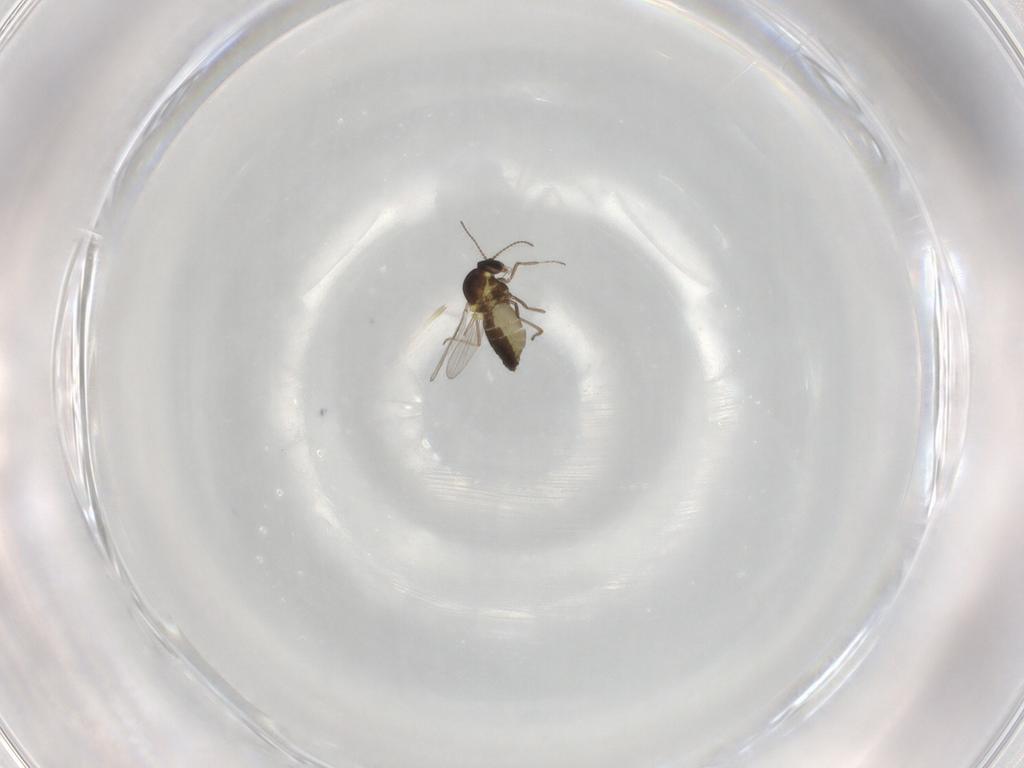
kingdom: Animalia
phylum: Arthropoda
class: Insecta
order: Diptera
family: Ceratopogonidae
